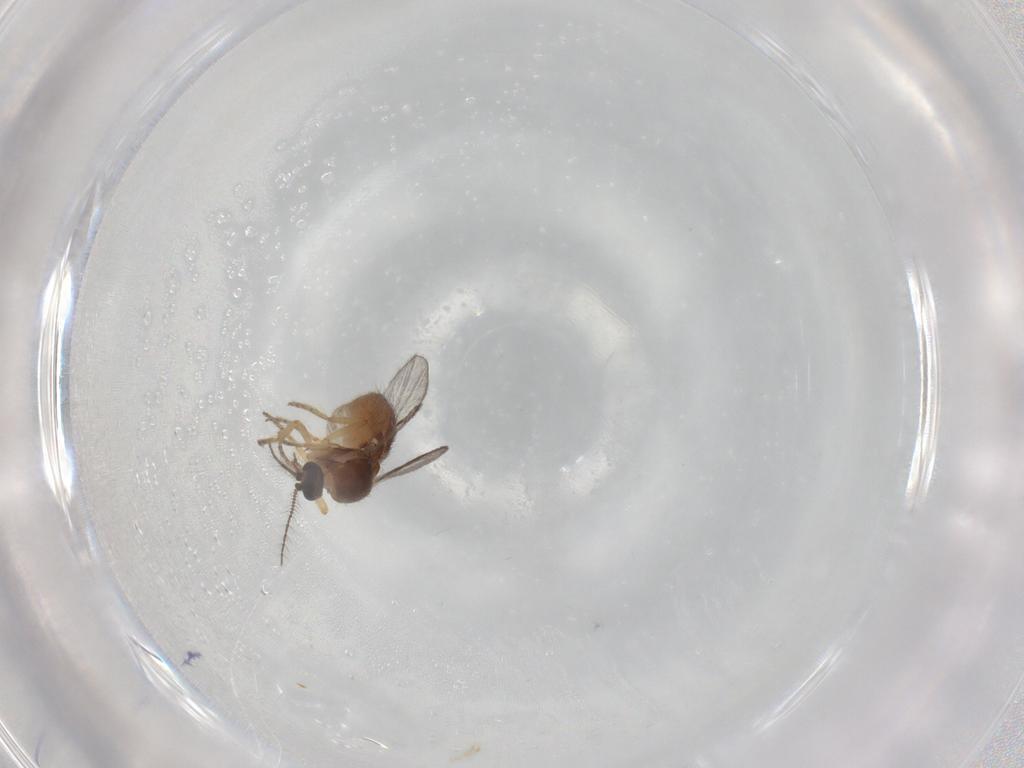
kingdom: Animalia
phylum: Arthropoda
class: Insecta
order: Diptera
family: Ceratopogonidae
